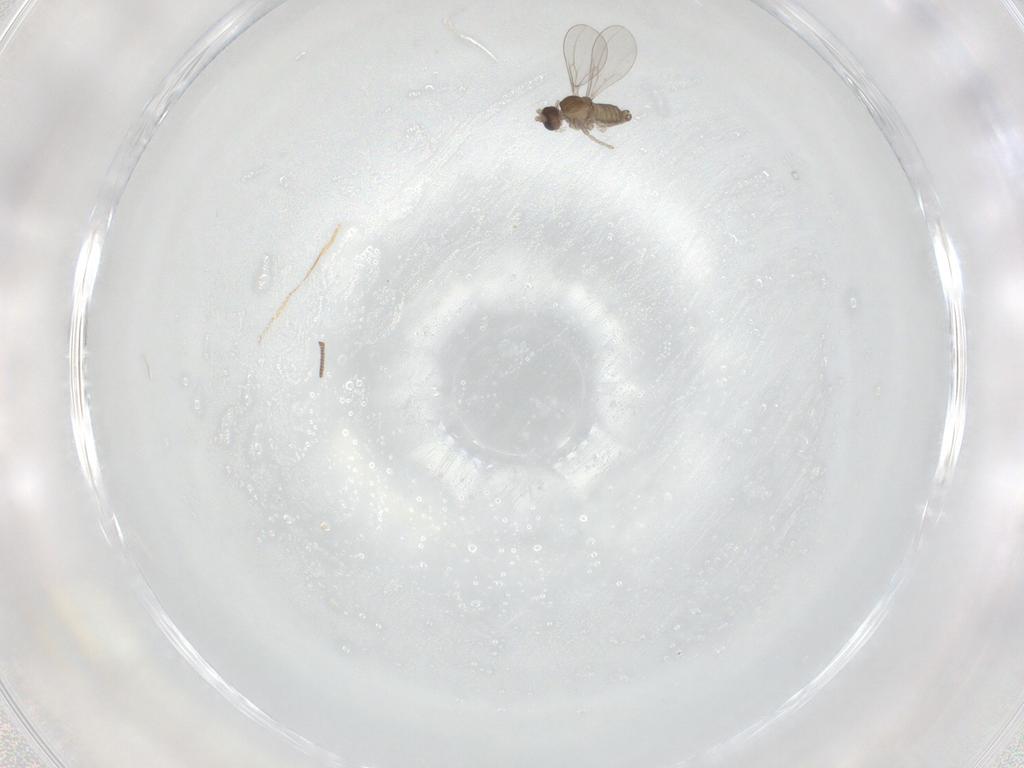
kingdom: Animalia
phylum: Arthropoda
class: Insecta
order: Diptera
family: Cecidomyiidae
